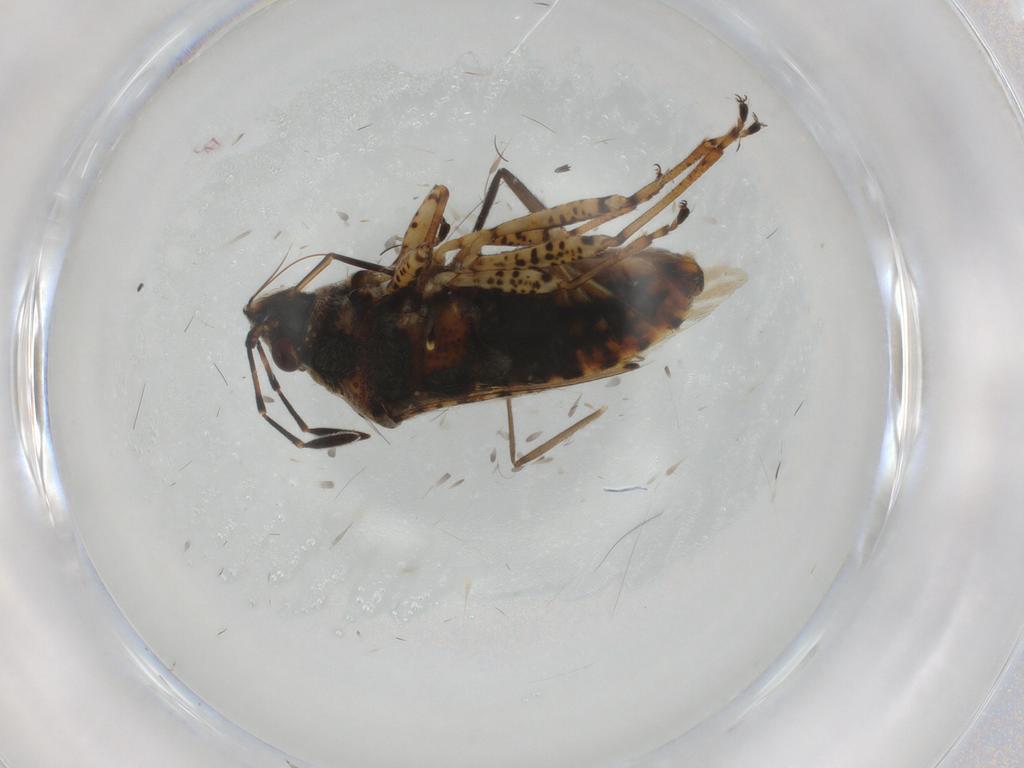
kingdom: Animalia
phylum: Arthropoda
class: Insecta
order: Hemiptera
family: Lygaeidae
